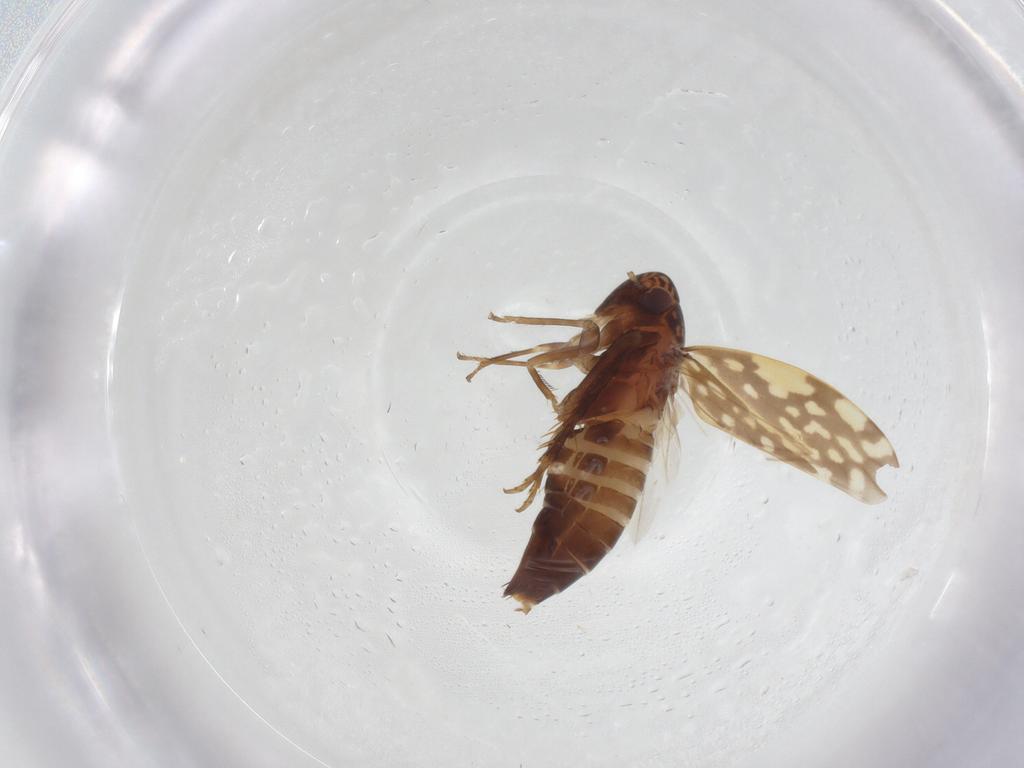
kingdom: Animalia
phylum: Arthropoda
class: Insecta
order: Hemiptera
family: Cicadellidae
